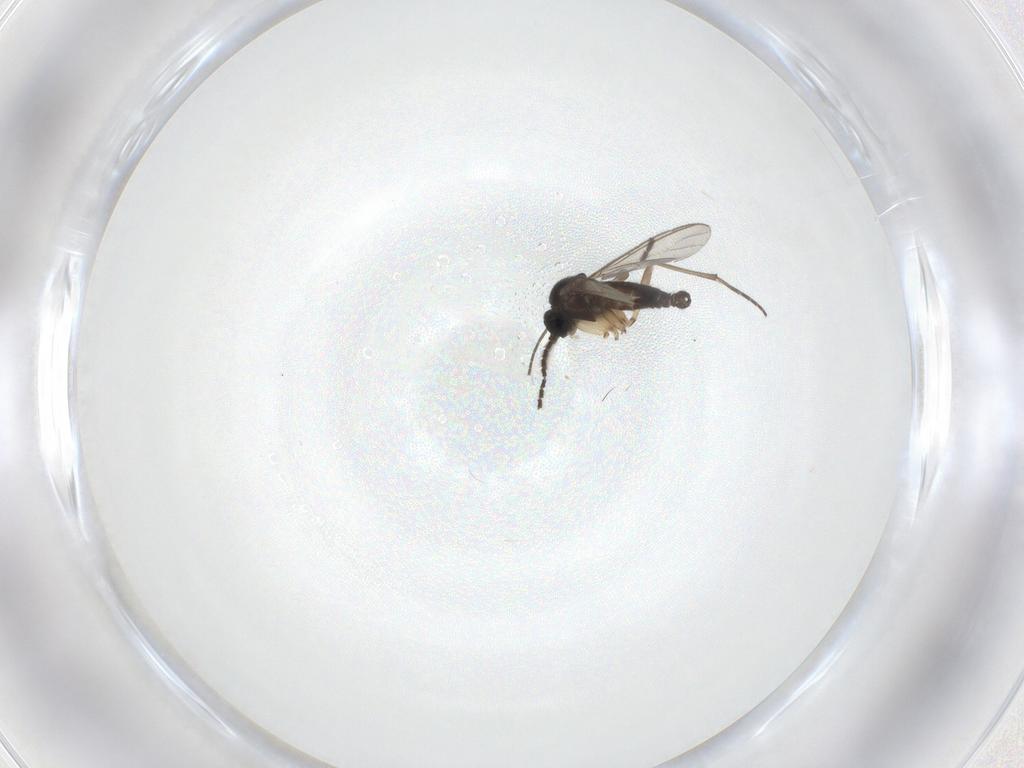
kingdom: Animalia
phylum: Arthropoda
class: Insecta
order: Diptera
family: Sciaridae
